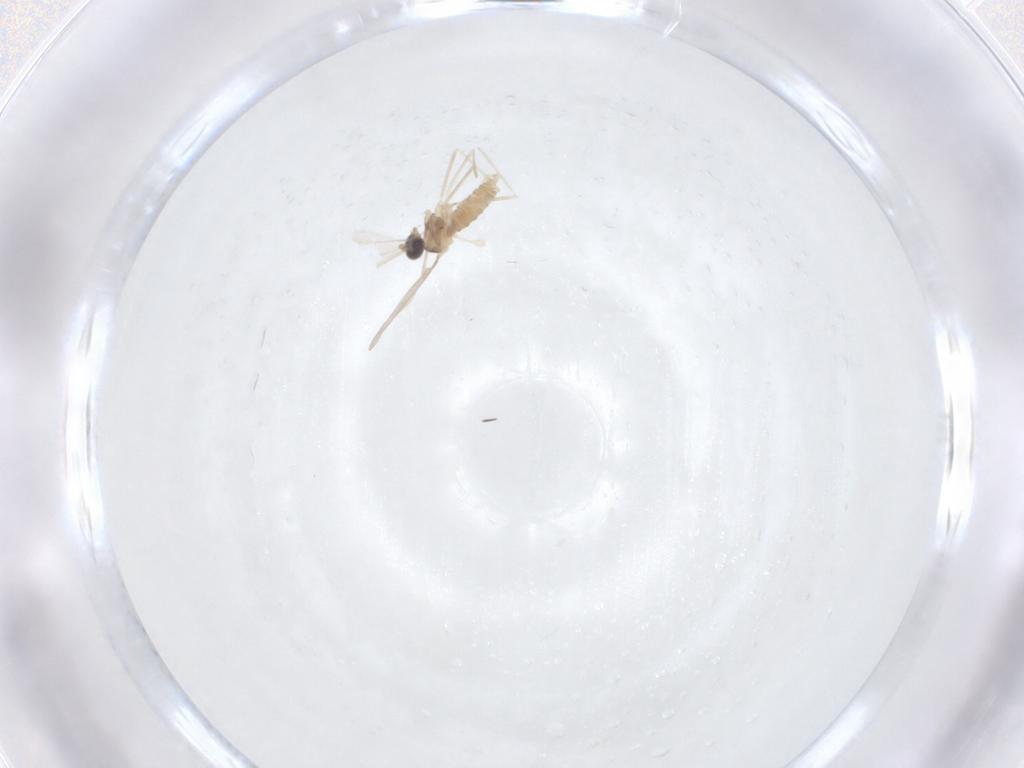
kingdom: Animalia
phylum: Arthropoda
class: Insecta
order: Diptera
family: Cecidomyiidae
